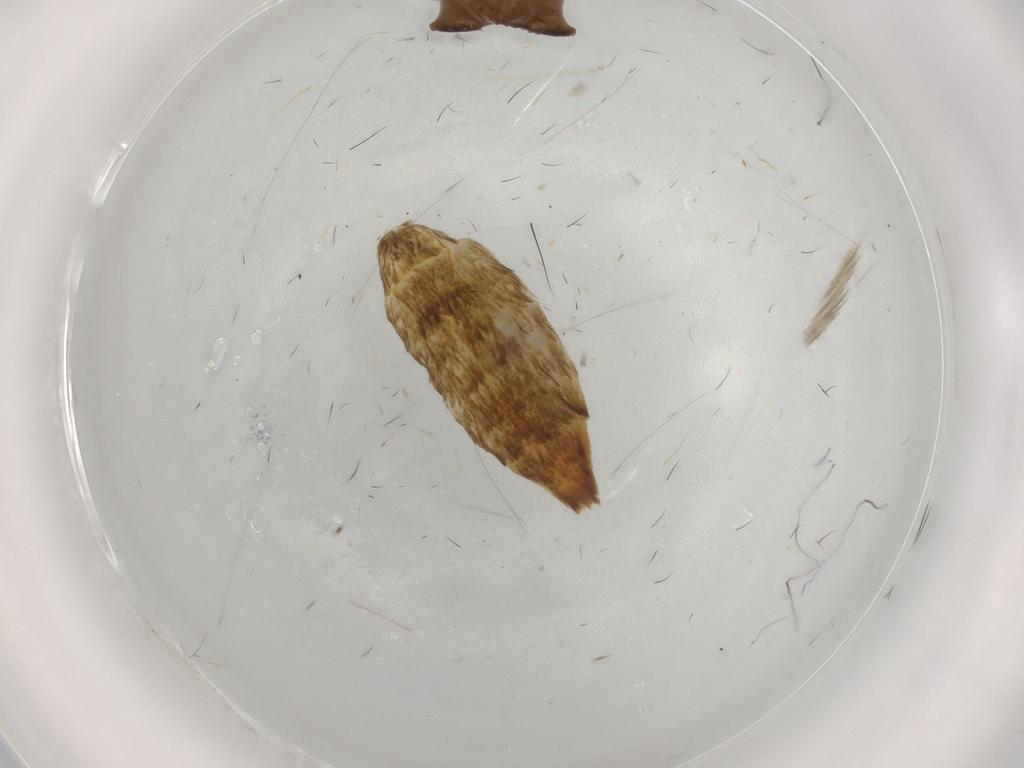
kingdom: Animalia
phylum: Arthropoda
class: Insecta
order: Lepidoptera
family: Tineidae
